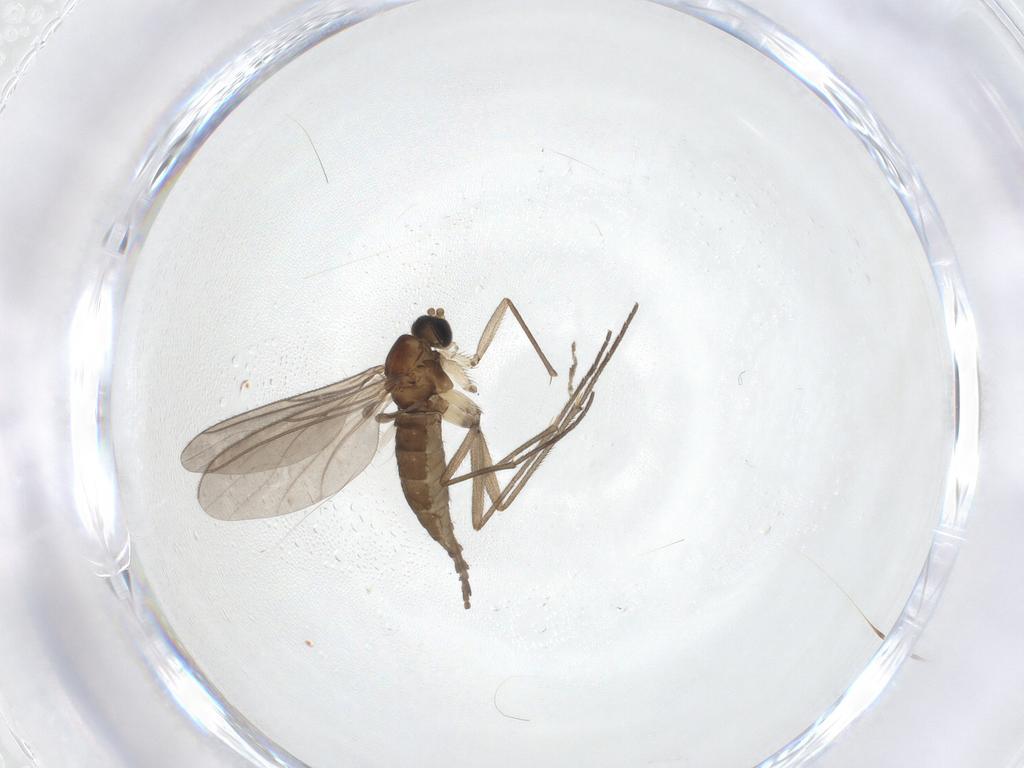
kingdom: Animalia
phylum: Arthropoda
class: Insecta
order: Diptera
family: Sciaridae
